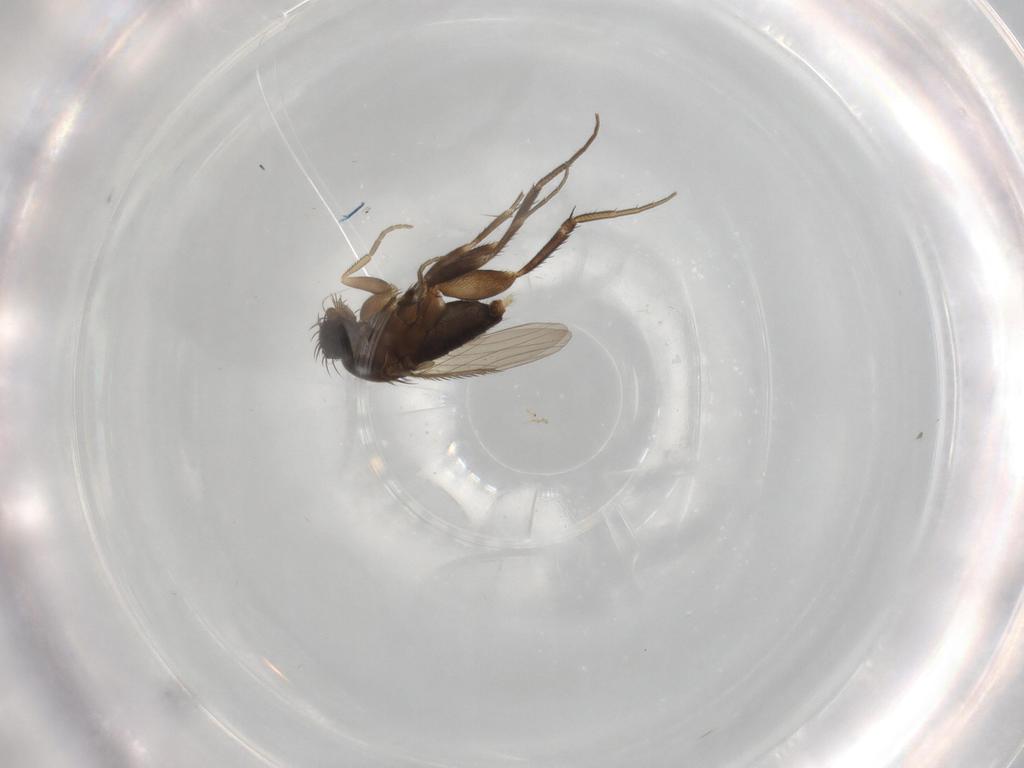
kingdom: Animalia
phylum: Arthropoda
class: Insecta
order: Diptera
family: Phoridae
